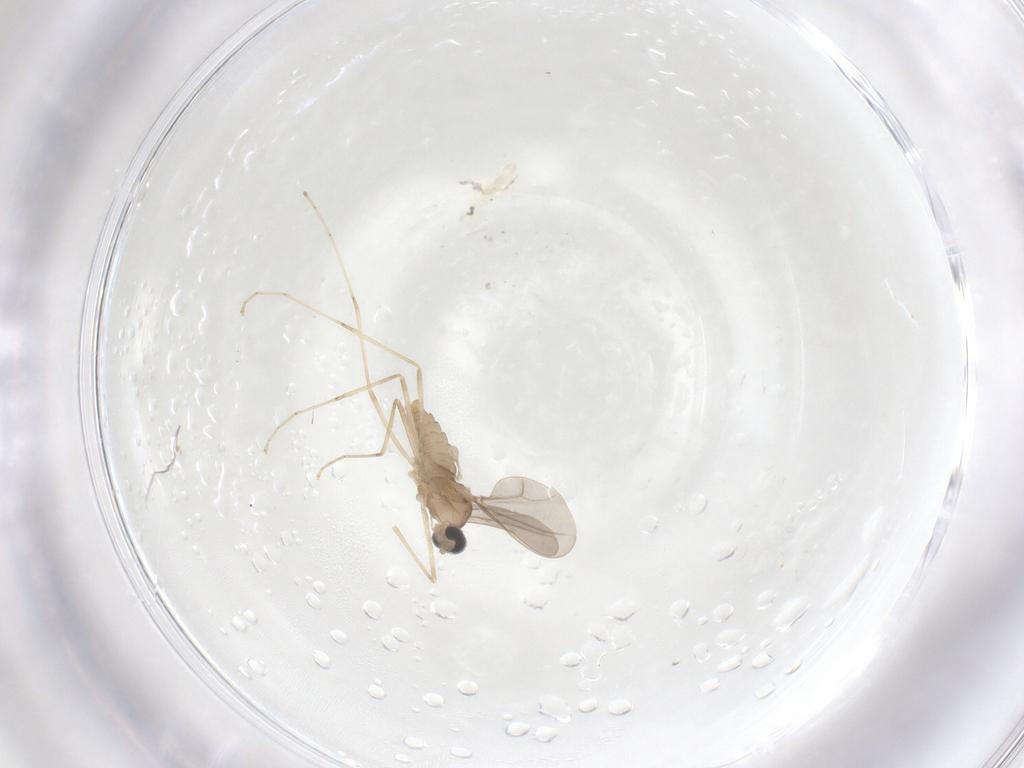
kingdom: Animalia
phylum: Arthropoda
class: Insecta
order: Diptera
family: Cecidomyiidae
